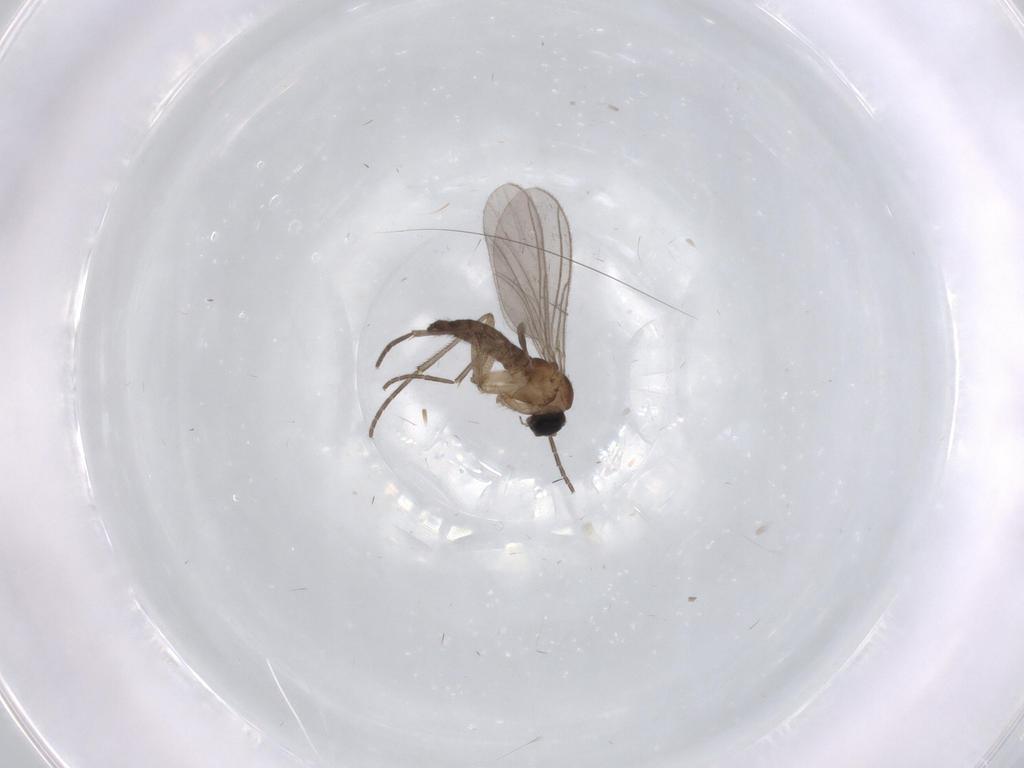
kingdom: Animalia
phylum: Arthropoda
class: Insecta
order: Diptera
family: Sciaridae
